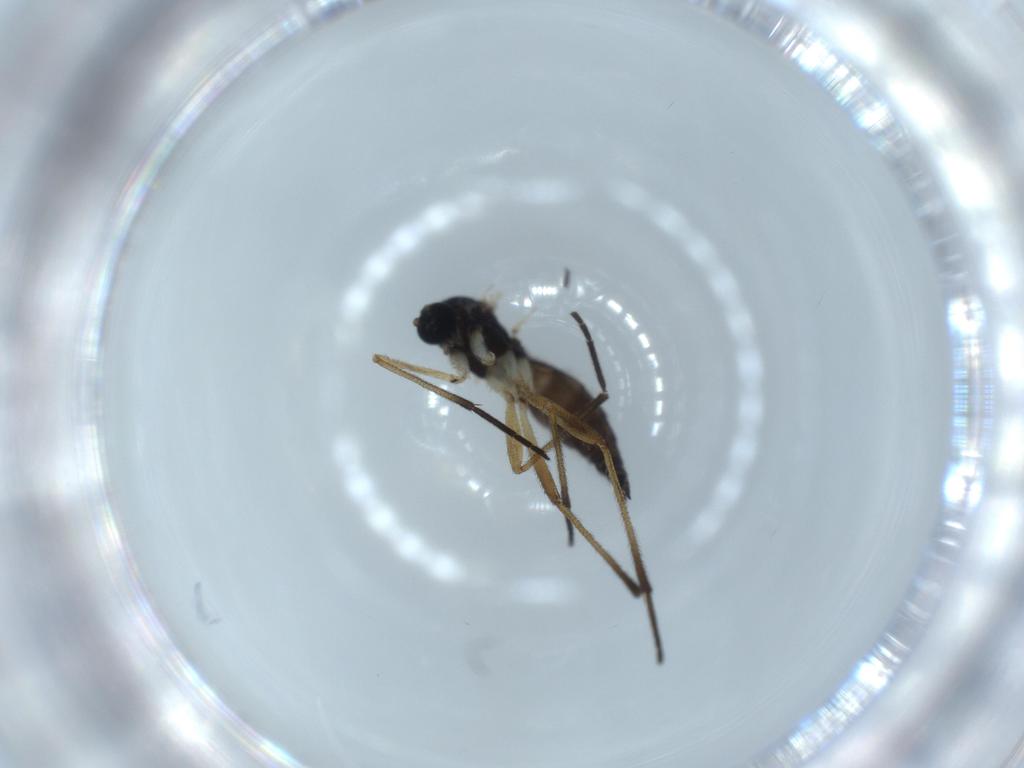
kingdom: Animalia
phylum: Arthropoda
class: Insecta
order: Diptera
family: Sciaridae
